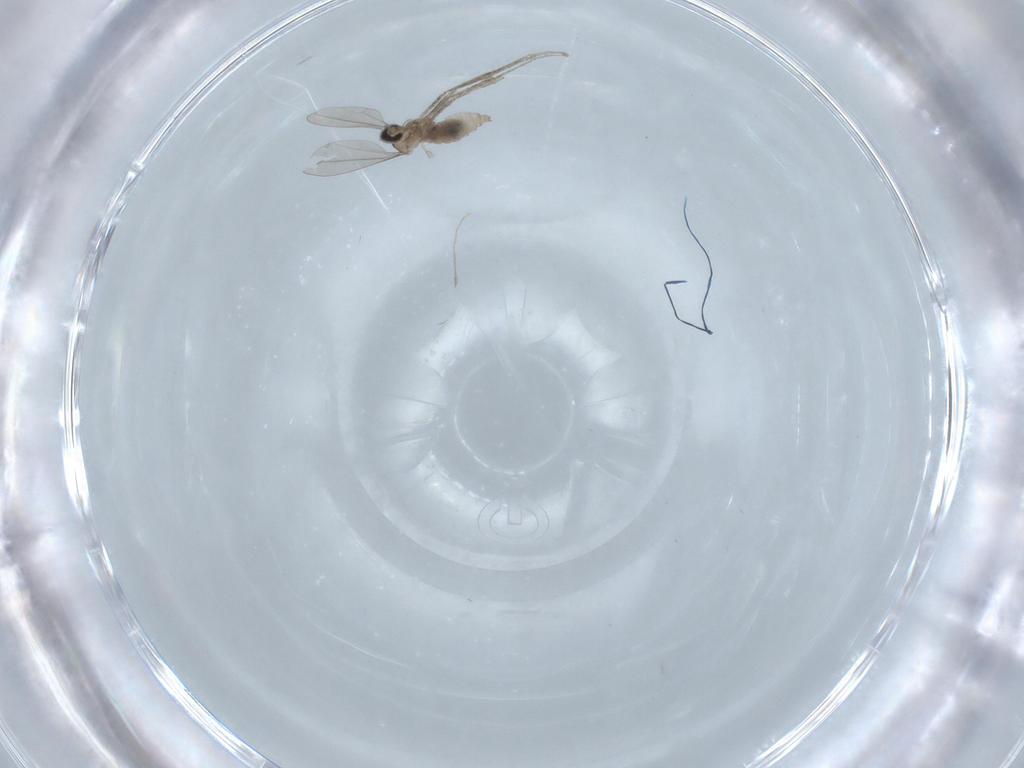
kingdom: Animalia
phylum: Arthropoda
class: Insecta
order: Diptera
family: Cecidomyiidae
